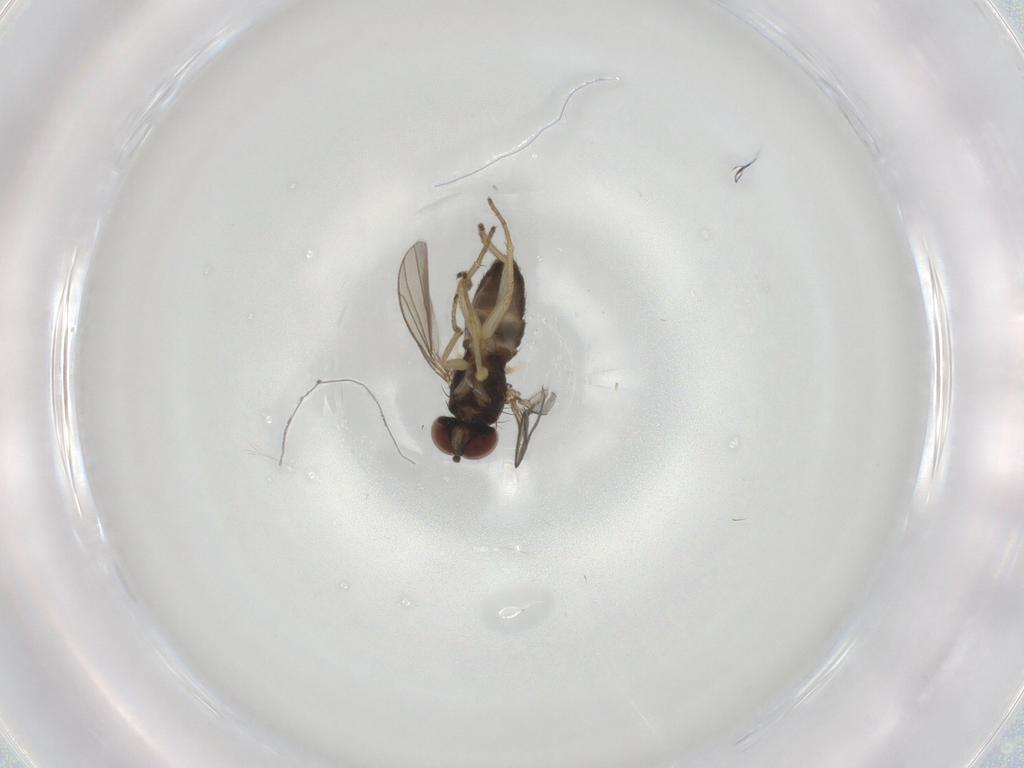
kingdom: Animalia
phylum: Arthropoda
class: Insecta
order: Diptera
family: Dolichopodidae
